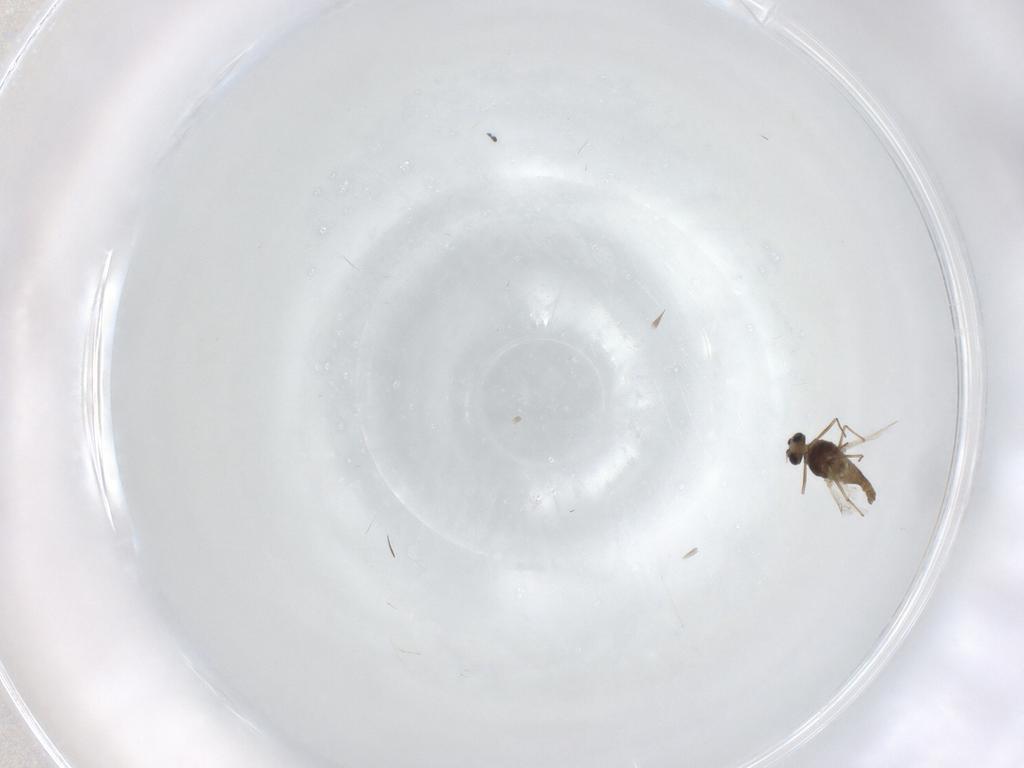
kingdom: Animalia
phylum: Arthropoda
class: Insecta
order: Diptera
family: Chironomidae
